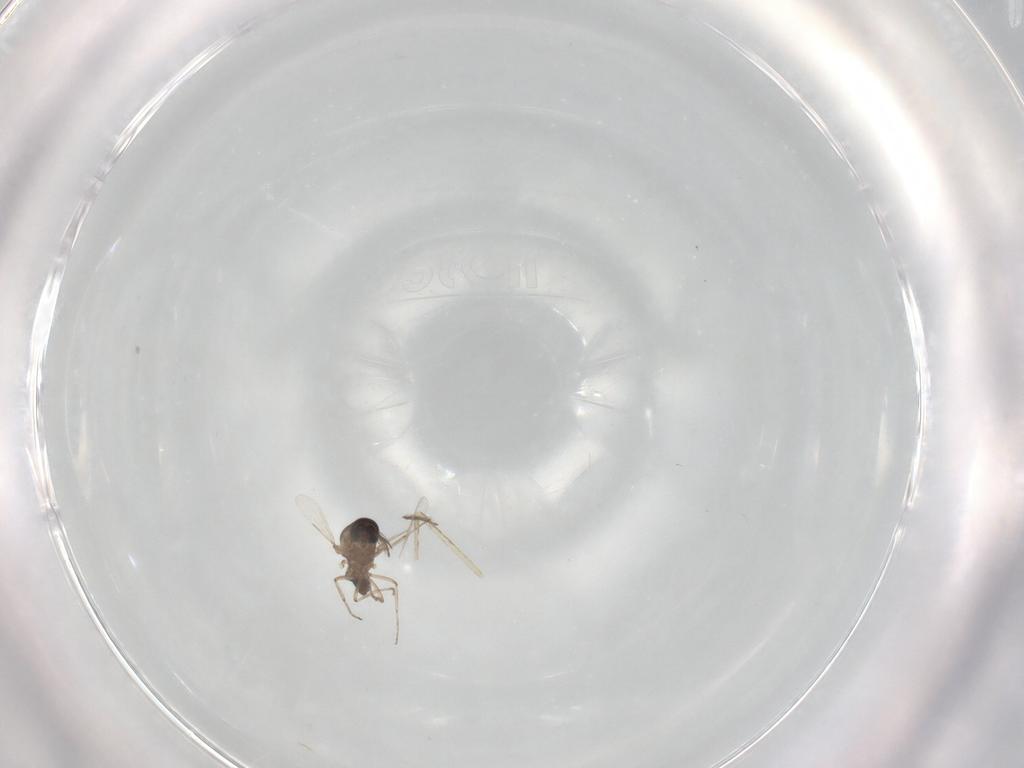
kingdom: Animalia
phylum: Arthropoda
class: Insecta
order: Diptera
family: Ceratopogonidae
